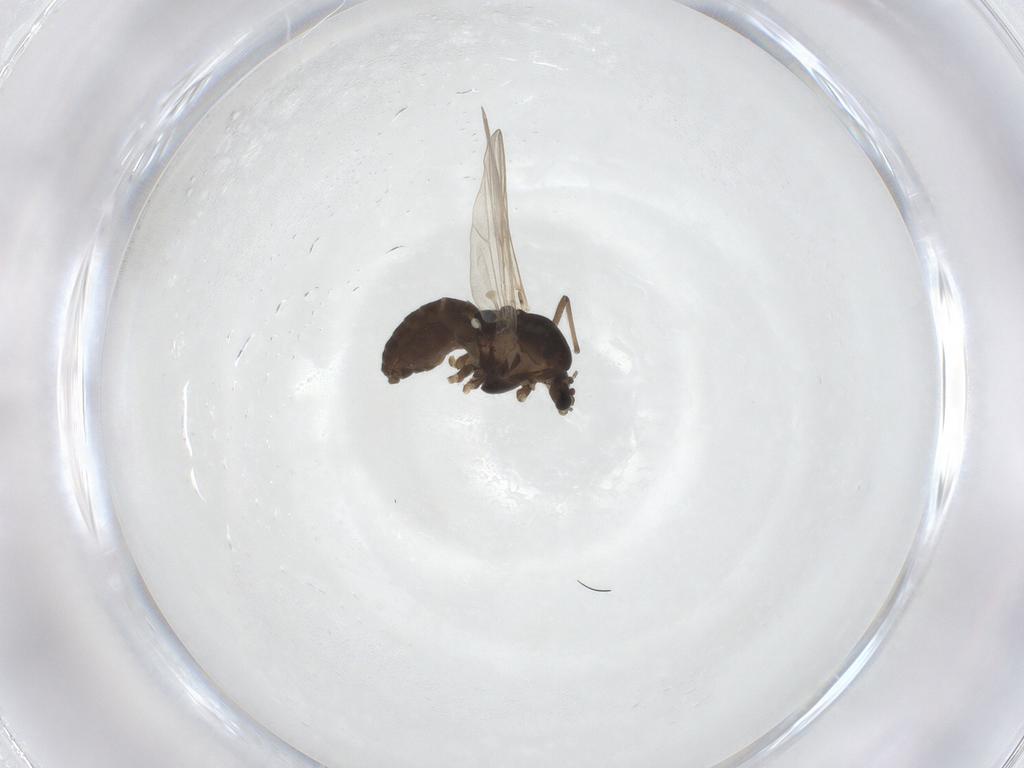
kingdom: Animalia
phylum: Arthropoda
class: Insecta
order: Diptera
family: Chironomidae
